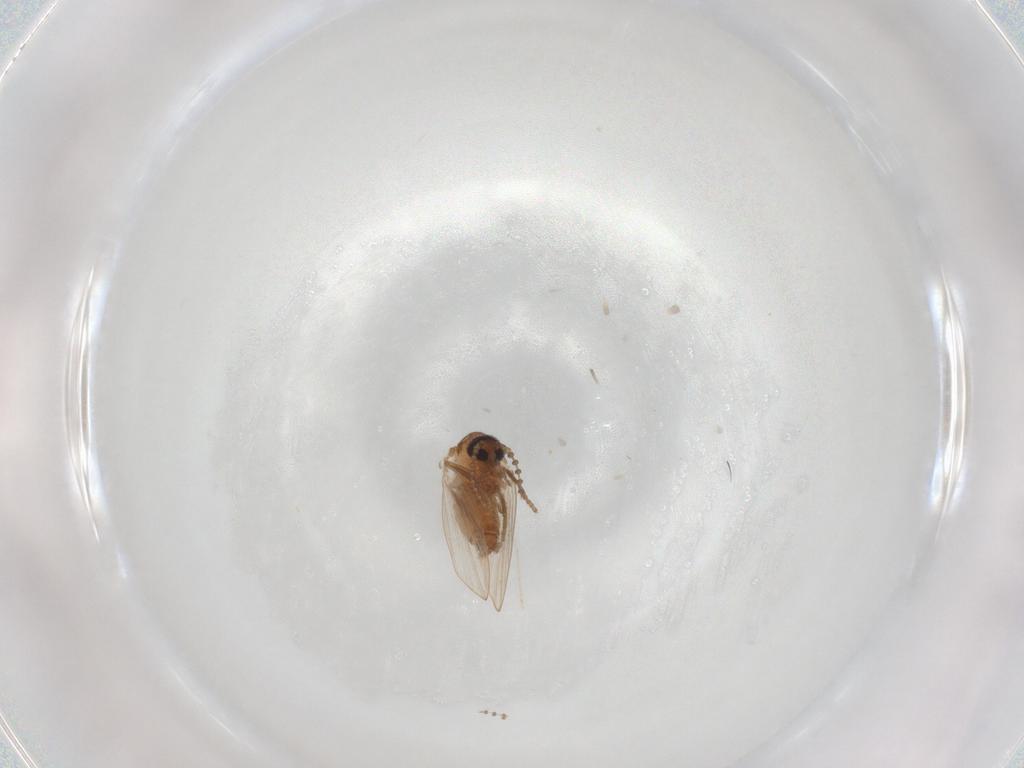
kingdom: Animalia
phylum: Arthropoda
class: Insecta
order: Diptera
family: Dolichopodidae
